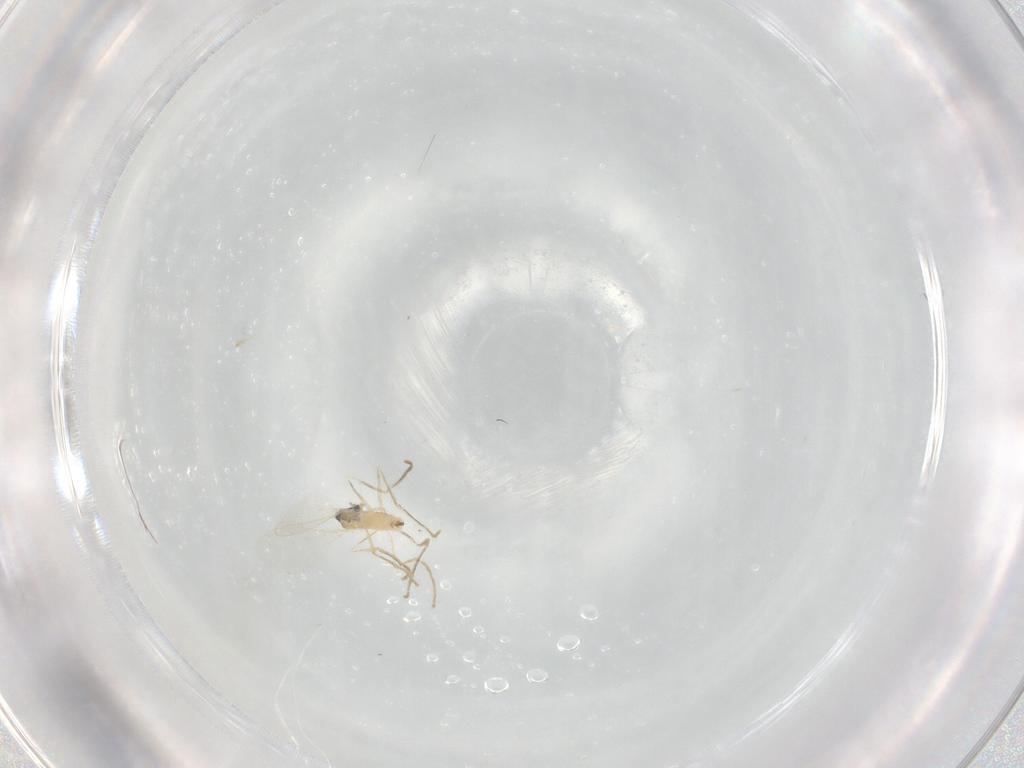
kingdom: Animalia
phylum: Arthropoda
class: Insecta
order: Diptera
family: Cecidomyiidae
